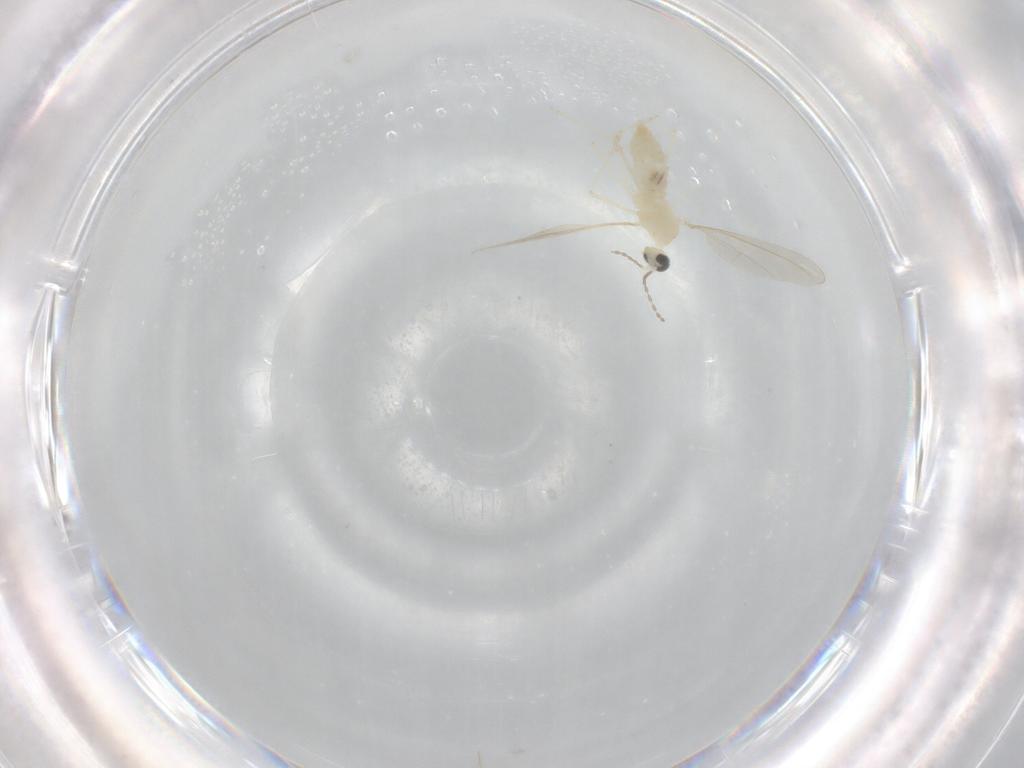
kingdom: Animalia
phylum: Arthropoda
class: Insecta
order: Diptera
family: Cecidomyiidae
